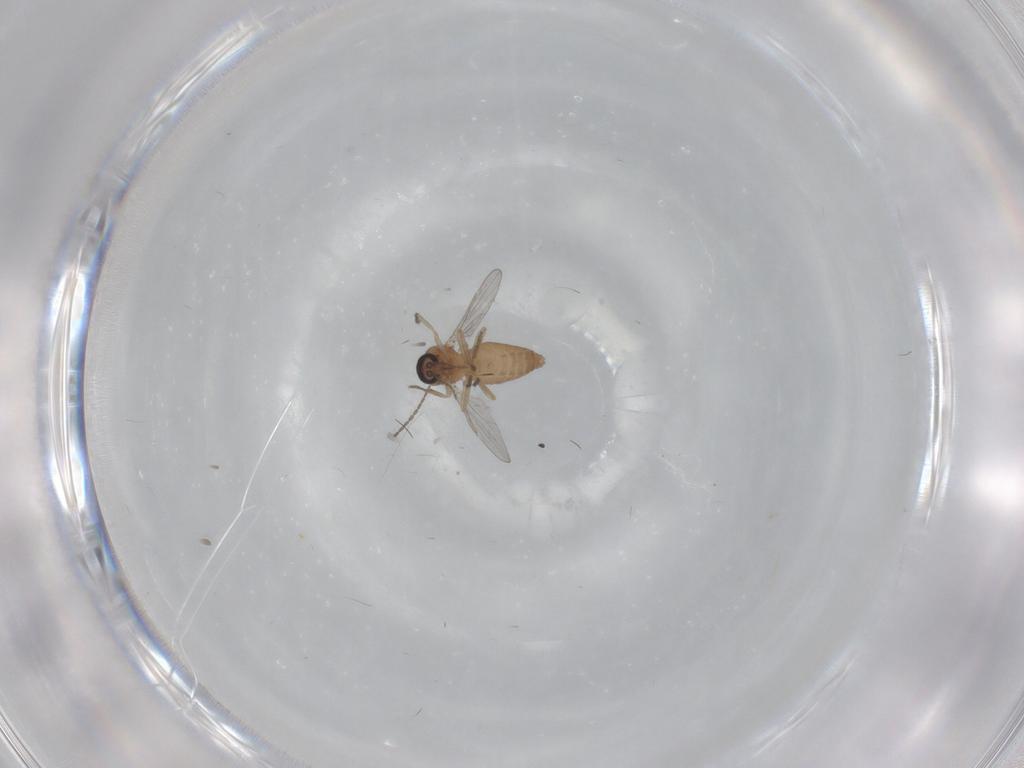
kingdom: Animalia
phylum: Arthropoda
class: Insecta
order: Diptera
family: Ceratopogonidae
